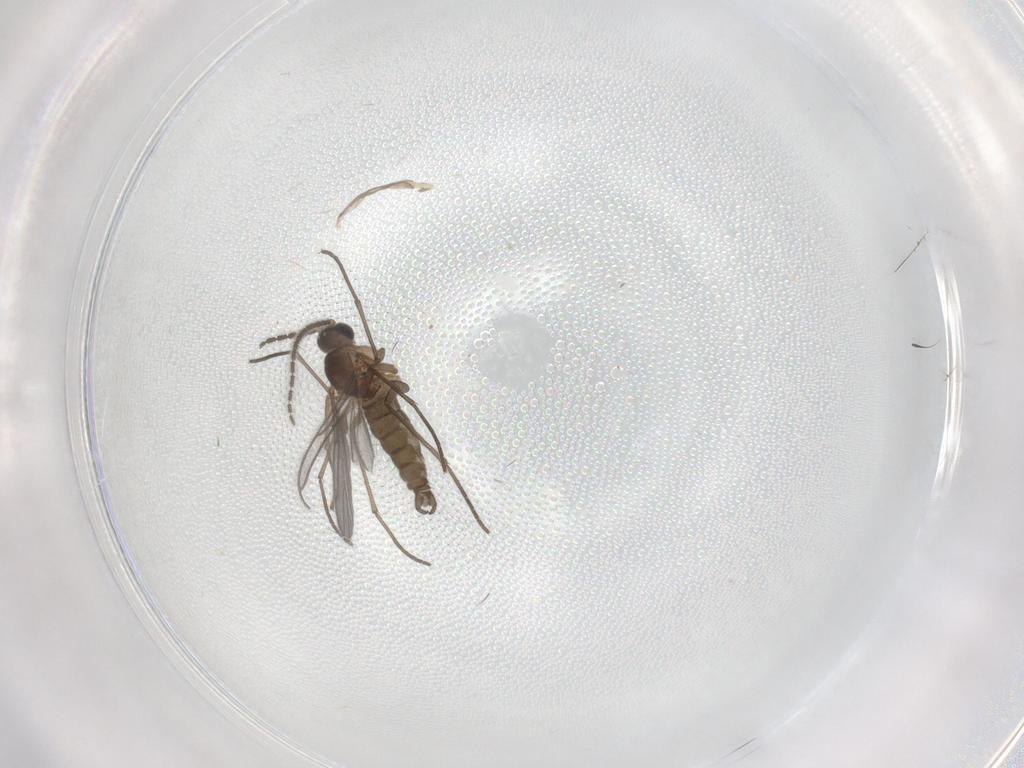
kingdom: Animalia
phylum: Arthropoda
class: Insecta
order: Diptera
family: Sciaridae
